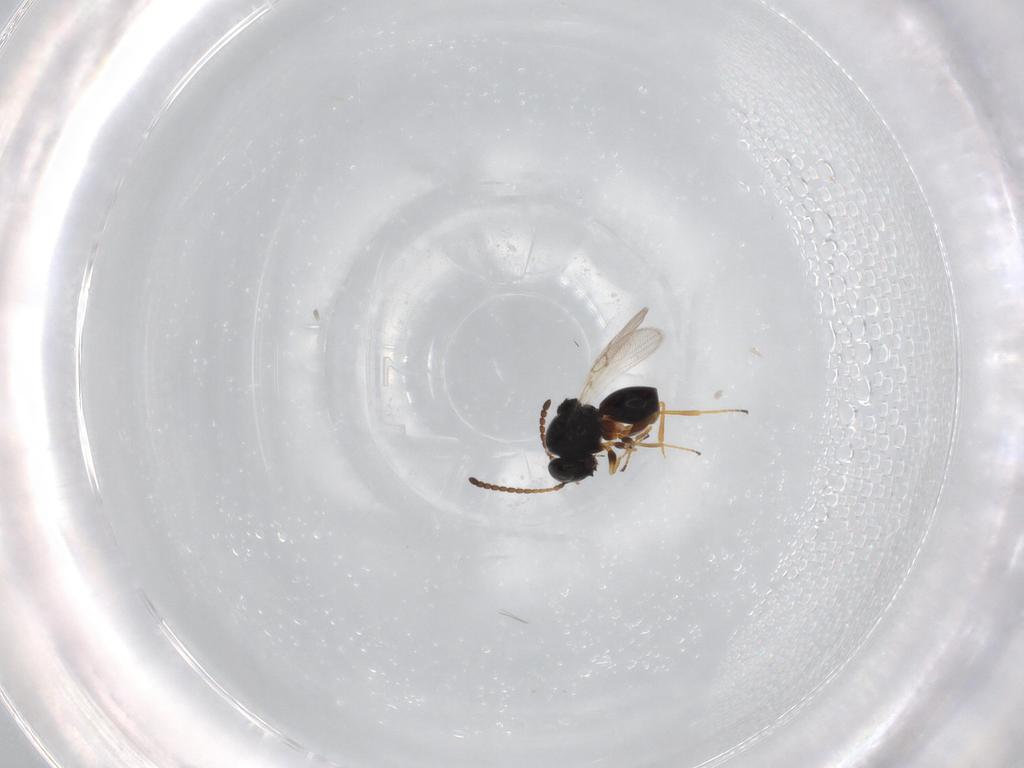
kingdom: Animalia
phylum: Arthropoda
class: Insecta
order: Hymenoptera
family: Figitidae
